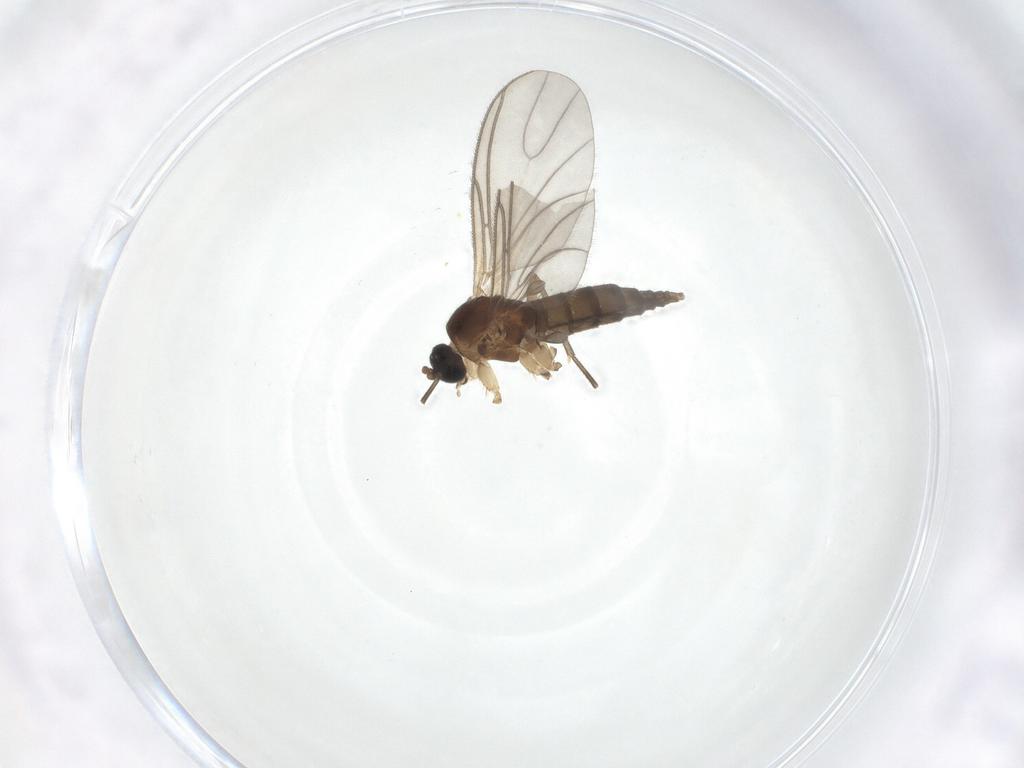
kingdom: Animalia
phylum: Arthropoda
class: Insecta
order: Diptera
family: Sciaridae
